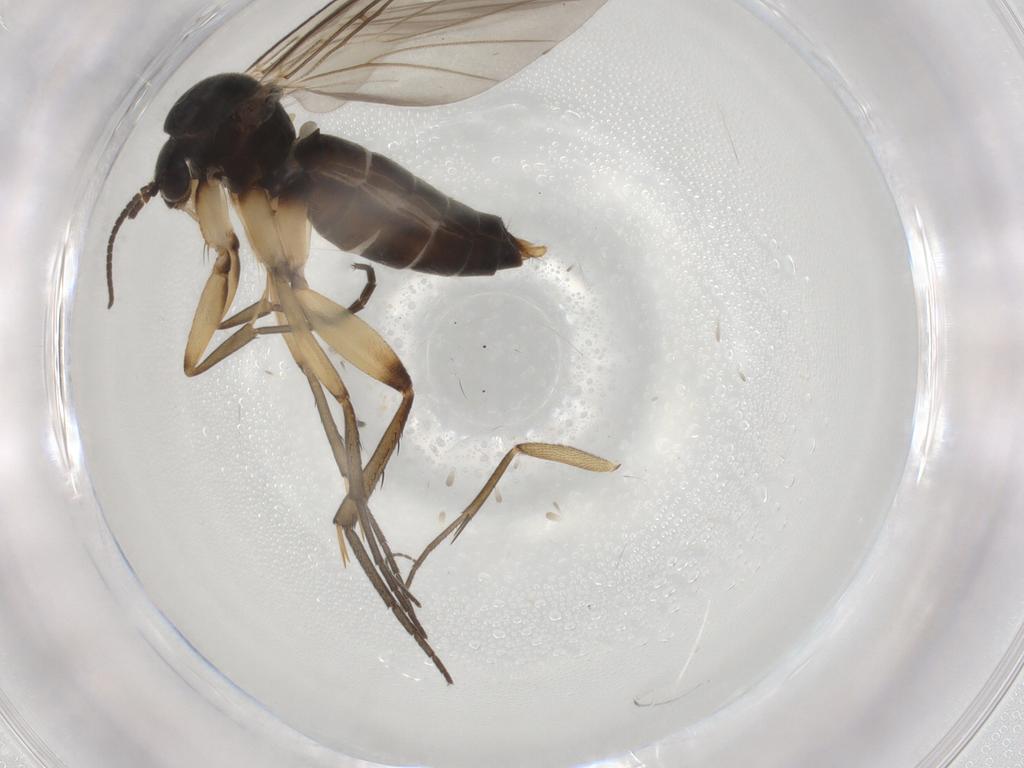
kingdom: Animalia
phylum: Arthropoda
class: Insecta
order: Diptera
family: Mycetophilidae
